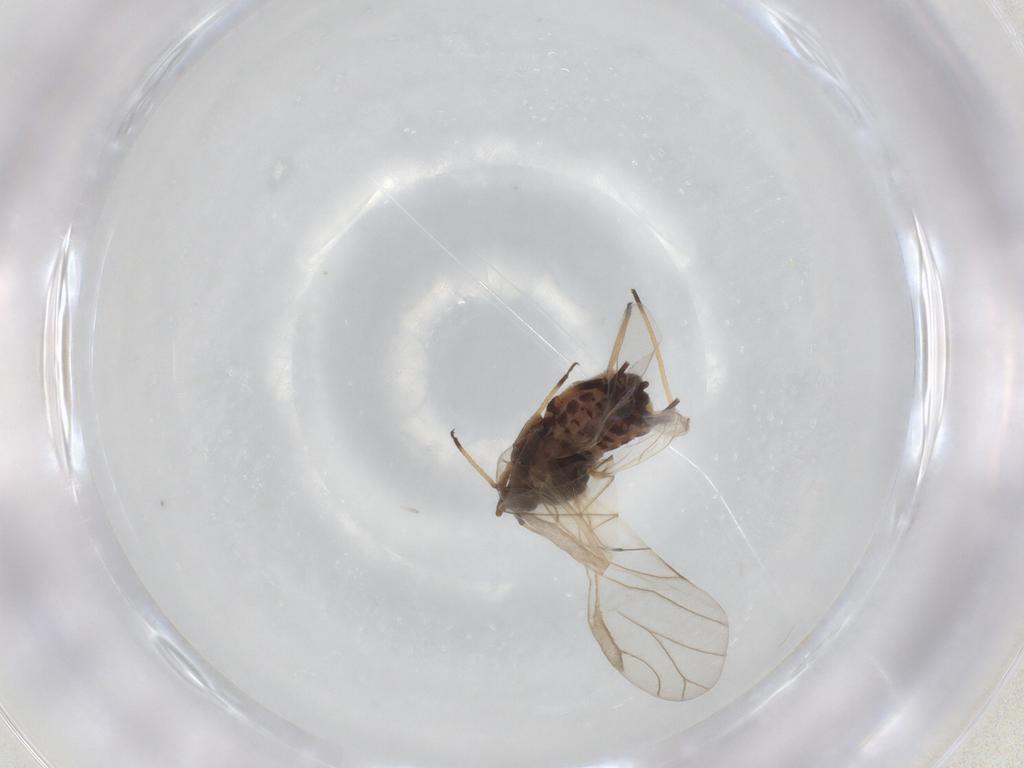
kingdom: Animalia
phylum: Arthropoda
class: Insecta
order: Hemiptera
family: Aphididae
